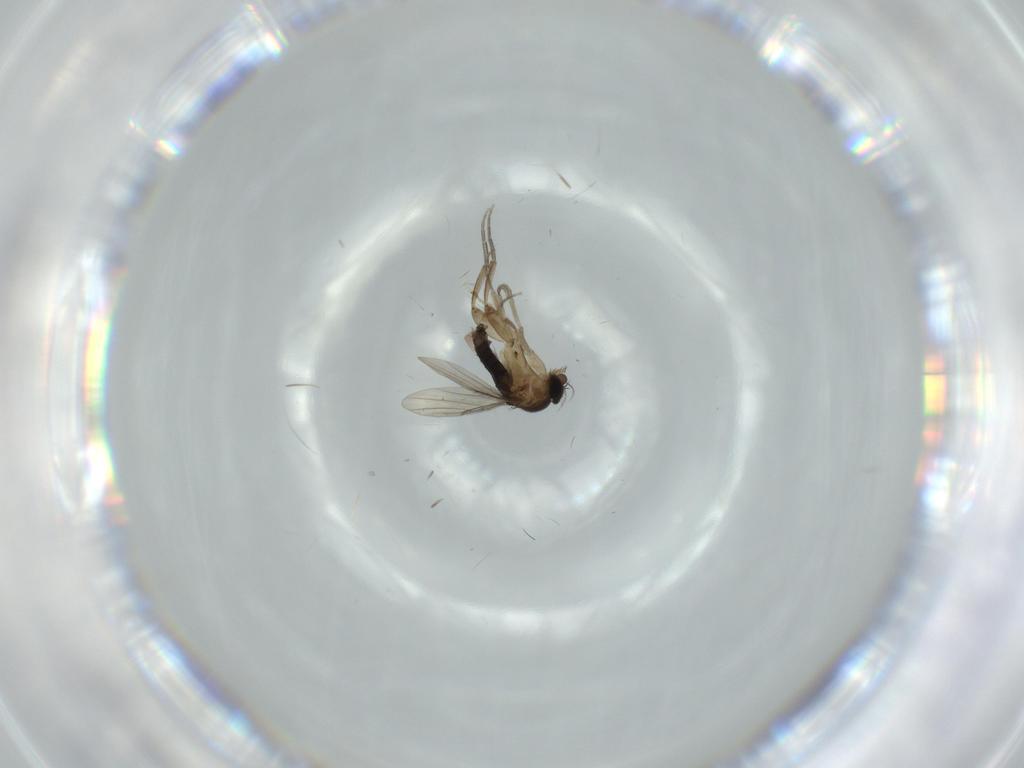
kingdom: Animalia
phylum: Arthropoda
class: Insecta
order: Diptera
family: Phoridae
